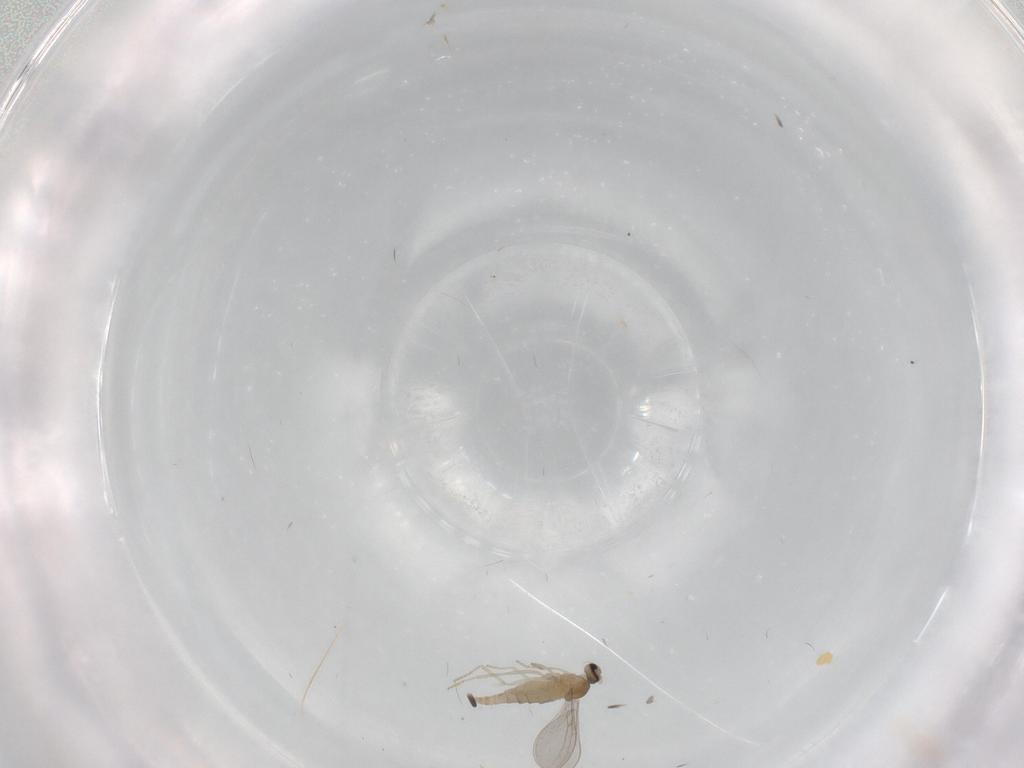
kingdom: Animalia
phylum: Arthropoda
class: Insecta
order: Diptera
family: Cecidomyiidae
